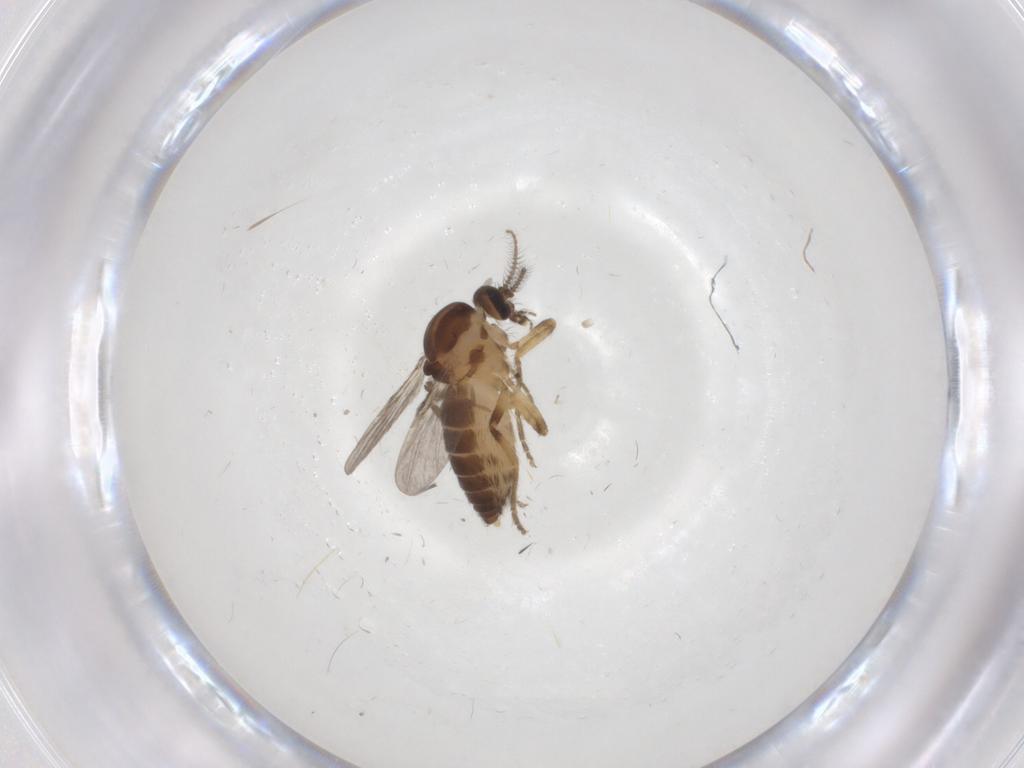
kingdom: Animalia
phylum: Arthropoda
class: Insecta
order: Diptera
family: Ceratopogonidae
